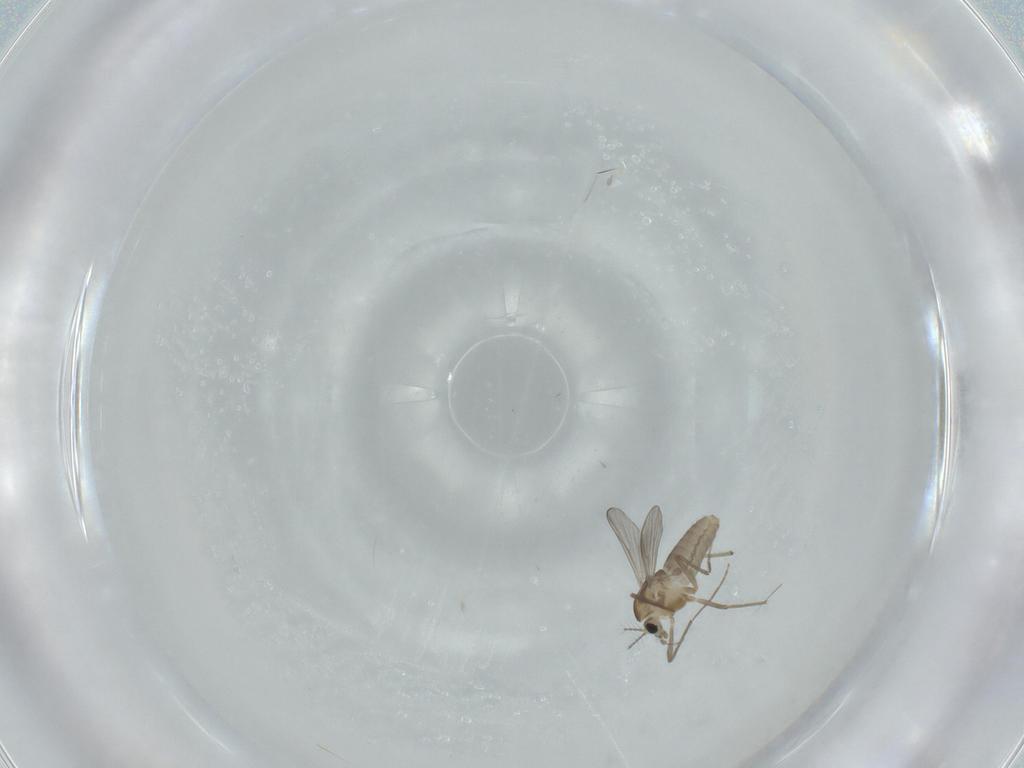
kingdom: Animalia
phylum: Arthropoda
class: Insecta
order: Diptera
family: Chironomidae
